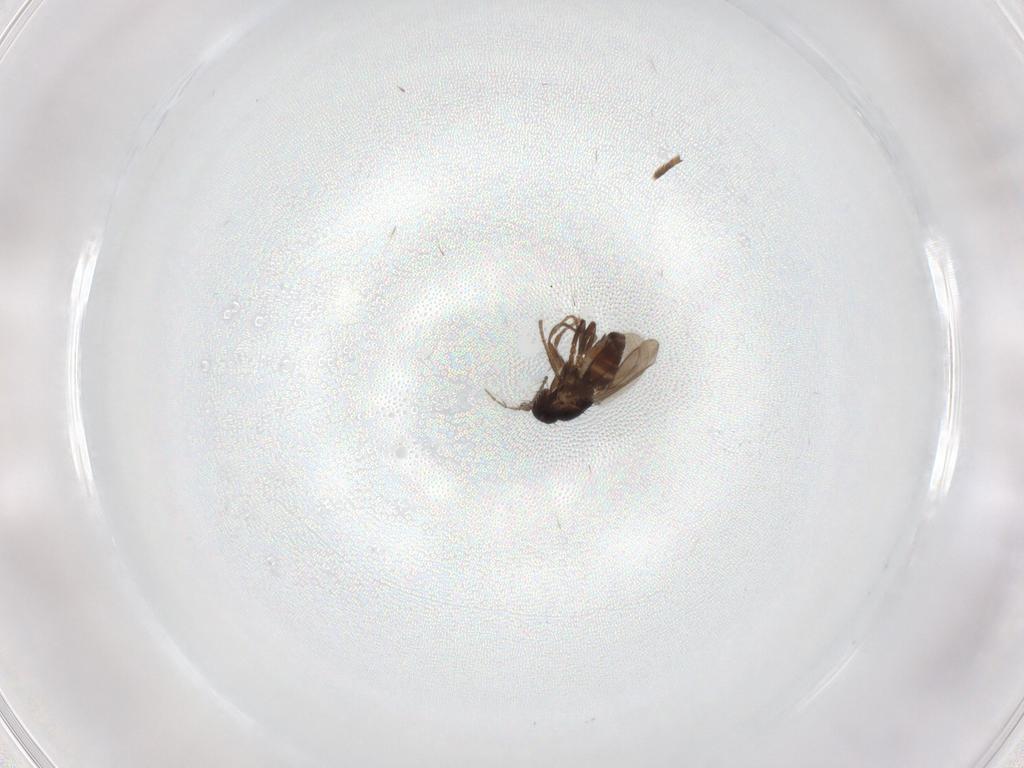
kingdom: Animalia
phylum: Arthropoda
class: Insecta
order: Diptera
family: Sphaeroceridae
